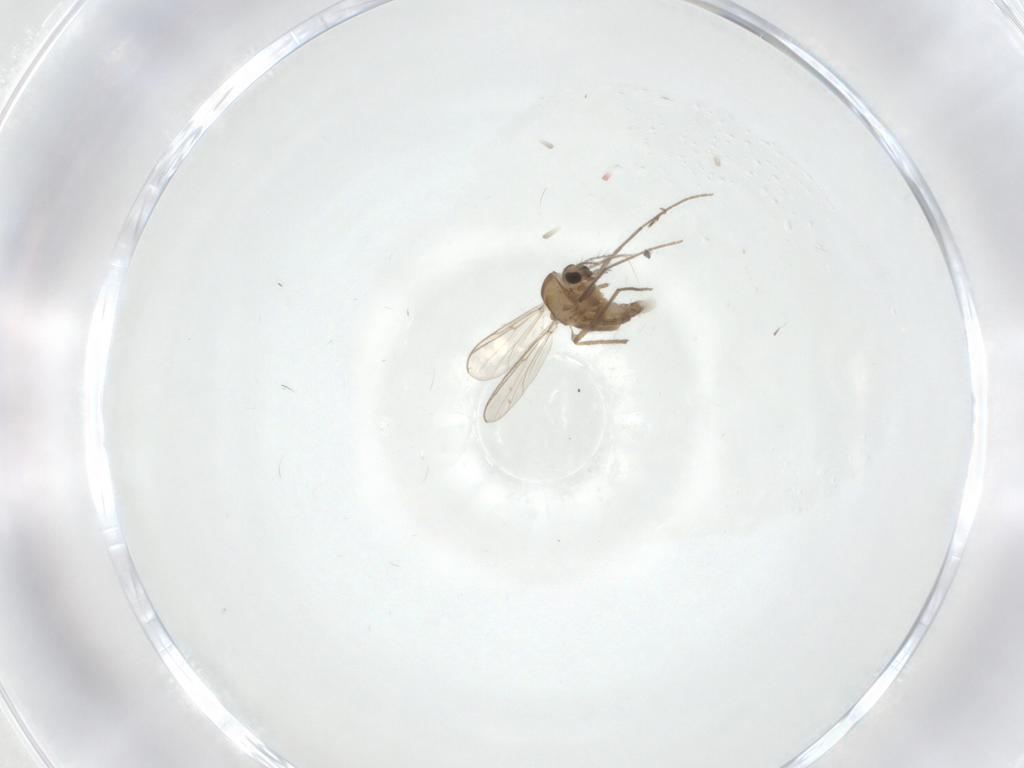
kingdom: Animalia
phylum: Arthropoda
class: Insecta
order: Diptera
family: Chironomidae
